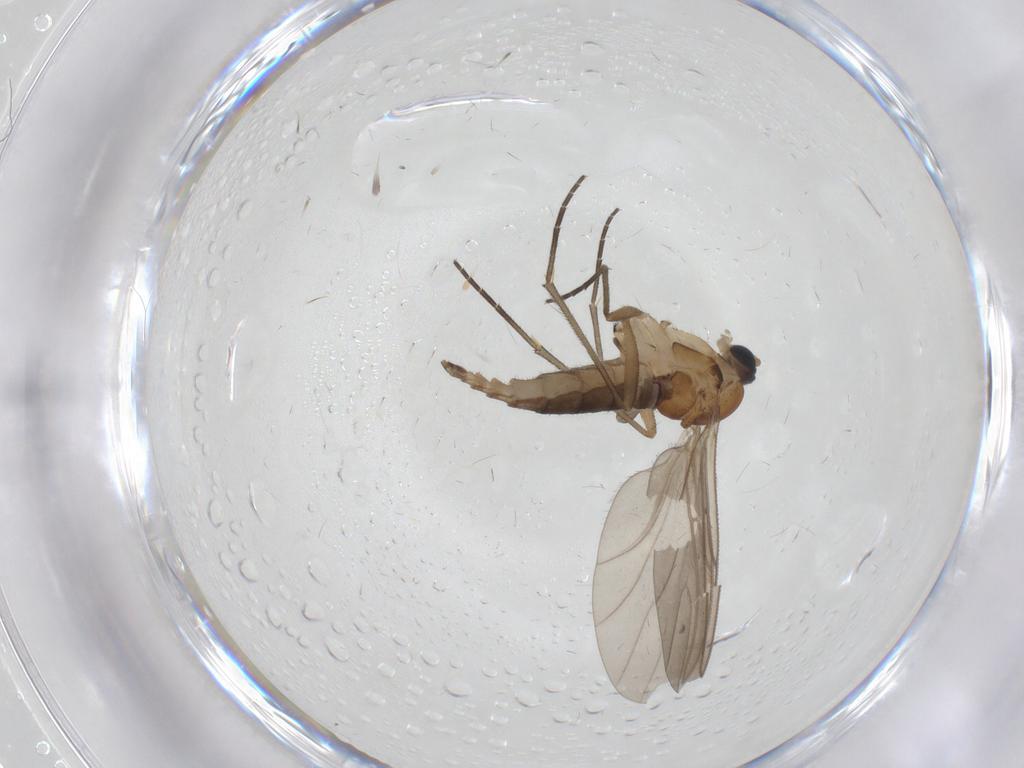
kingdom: Animalia
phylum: Arthropoda
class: Insecta
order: Diptera
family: Sciaridae
